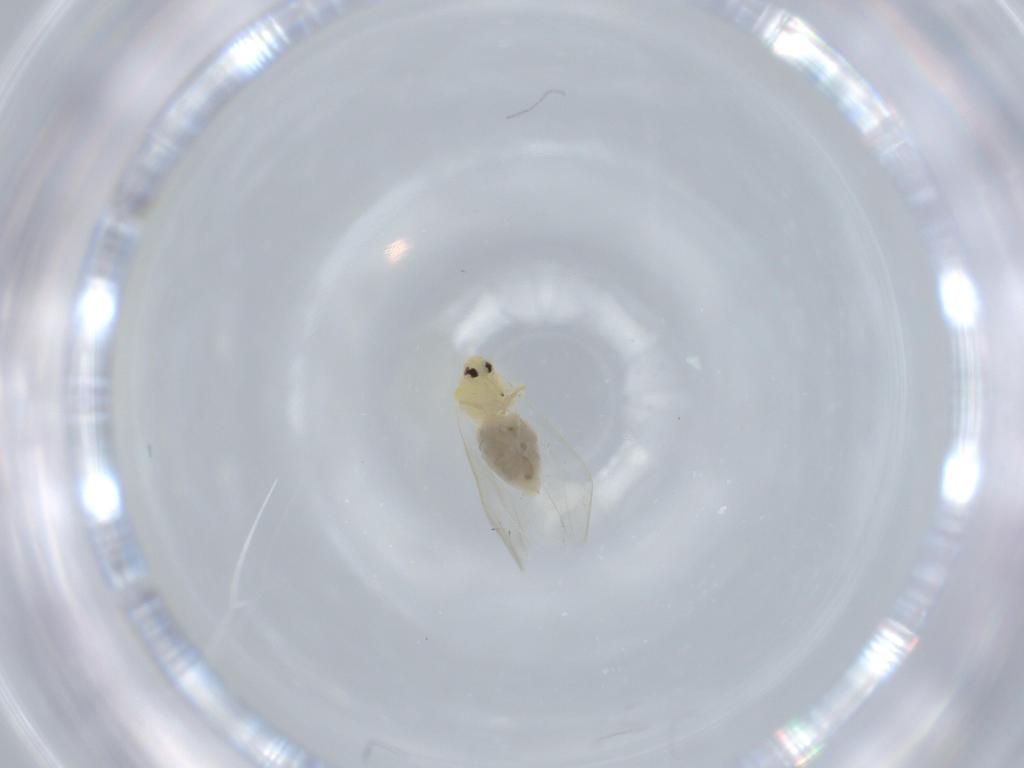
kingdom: Animalia
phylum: Arthropoda
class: Insecta
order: Hemiptera
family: Aleyrodidae
